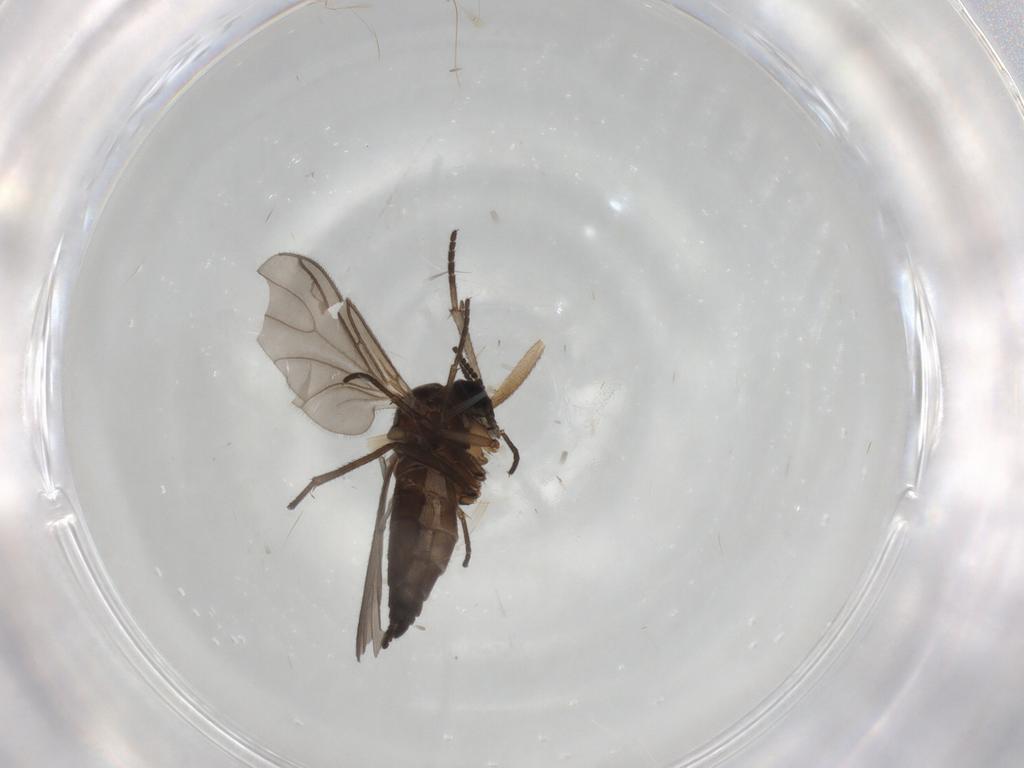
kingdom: Animalia
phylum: Arthropoda
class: Insecta
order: Diptera
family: Sciaridae
